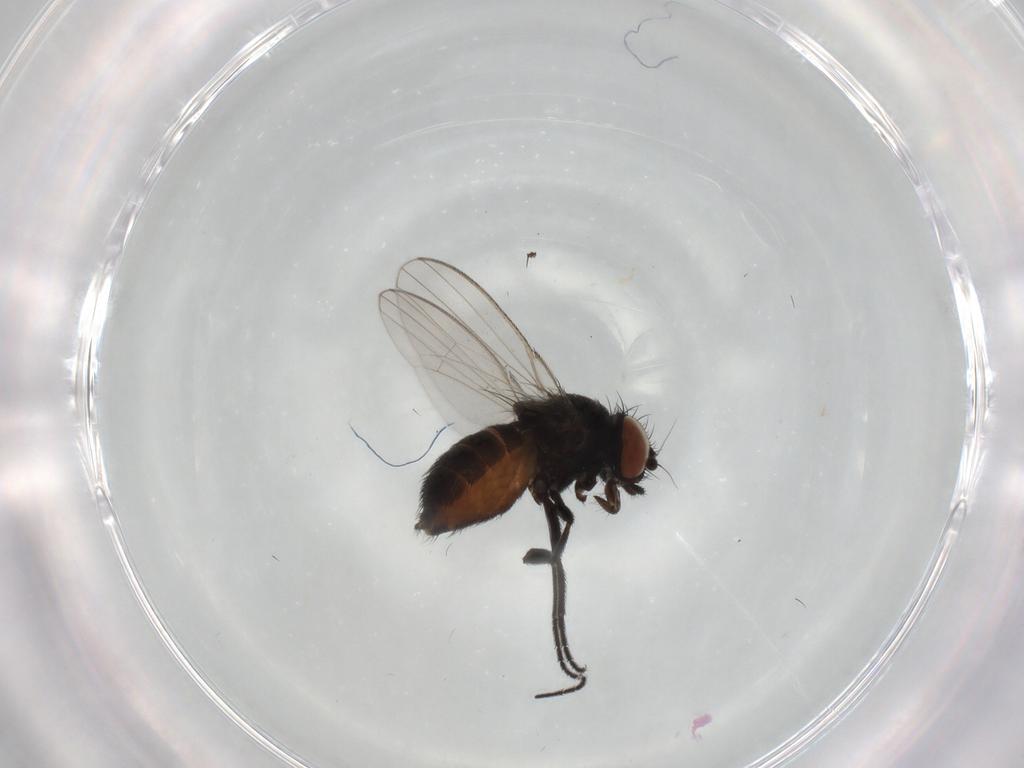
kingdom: Animalia
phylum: Arthropoda
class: Insecta
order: Diptera
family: Milichiidae
